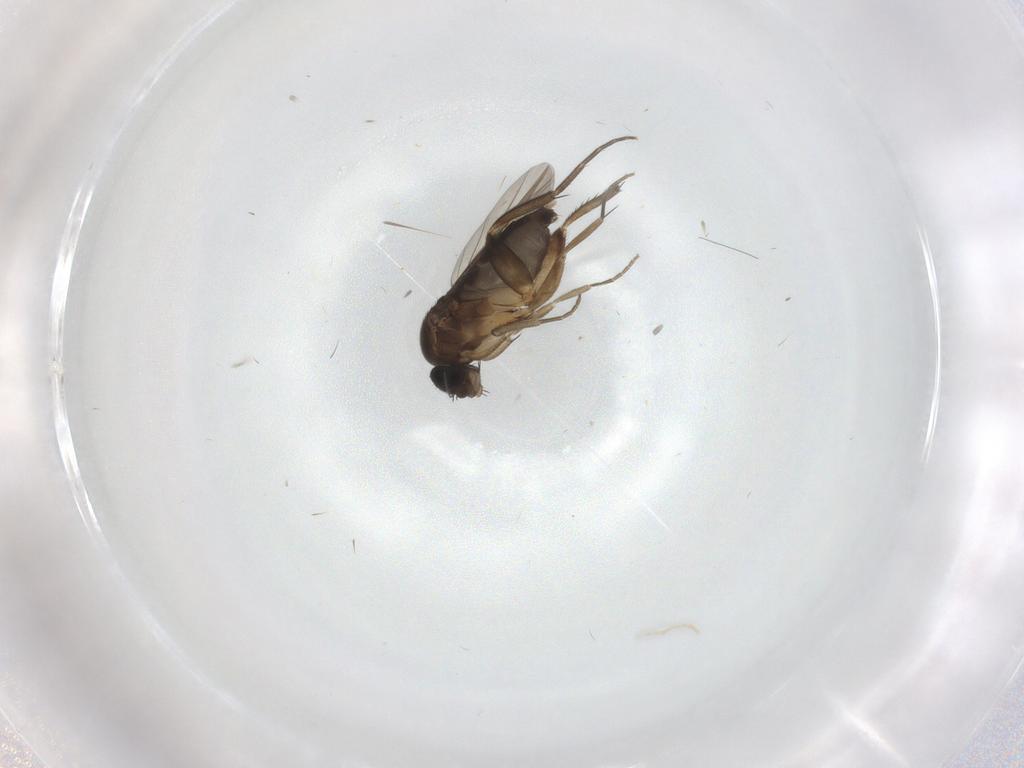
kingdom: Animalia
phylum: Arthropoda
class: Insecta
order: Diptera
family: Phoridae
